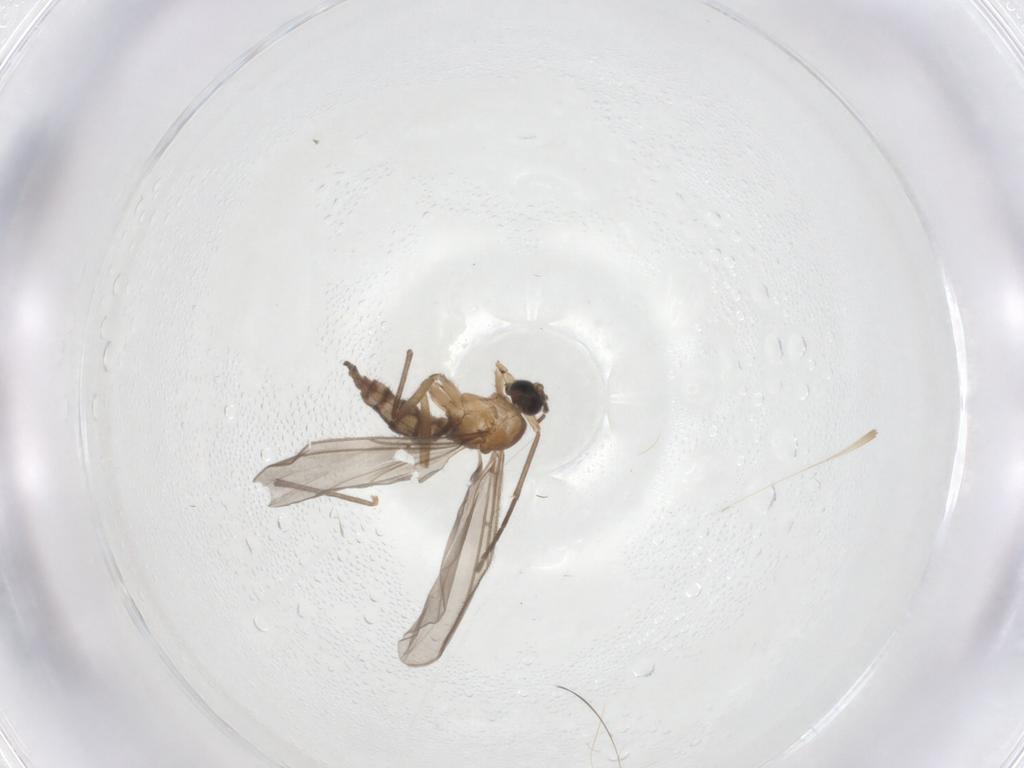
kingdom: Animalia
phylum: Arthropoda
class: Insecta
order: Diptera
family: Sciaridae
